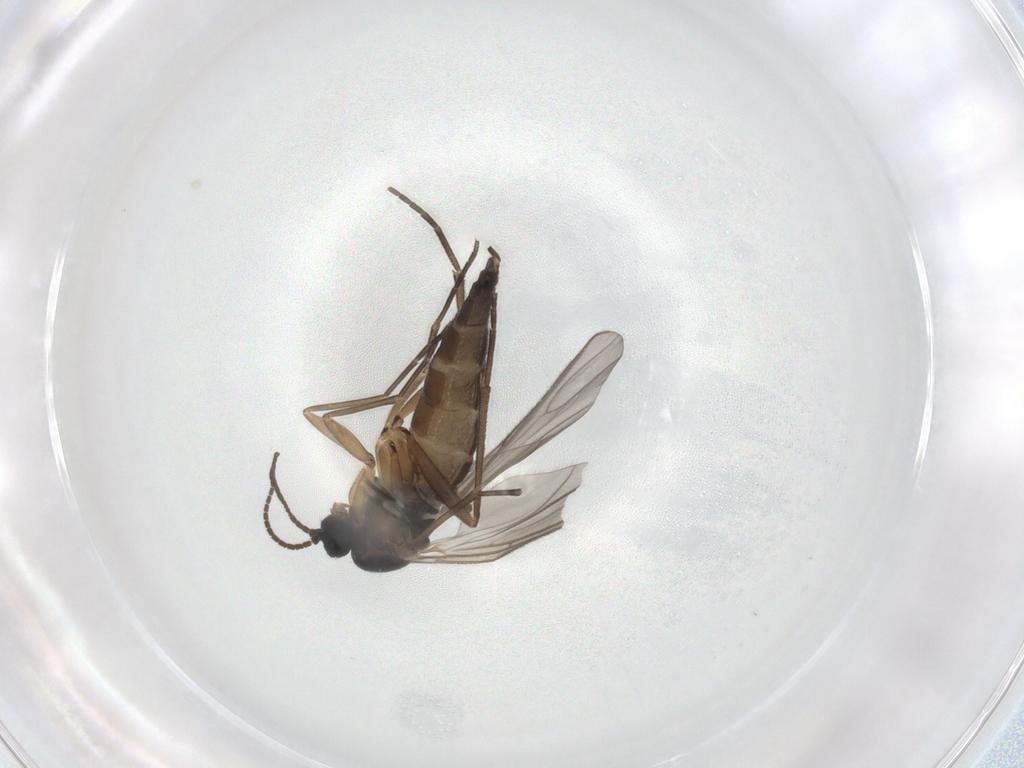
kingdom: Animalia
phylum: Arthropoda
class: Insecta
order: Diptera
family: Sciaridae
